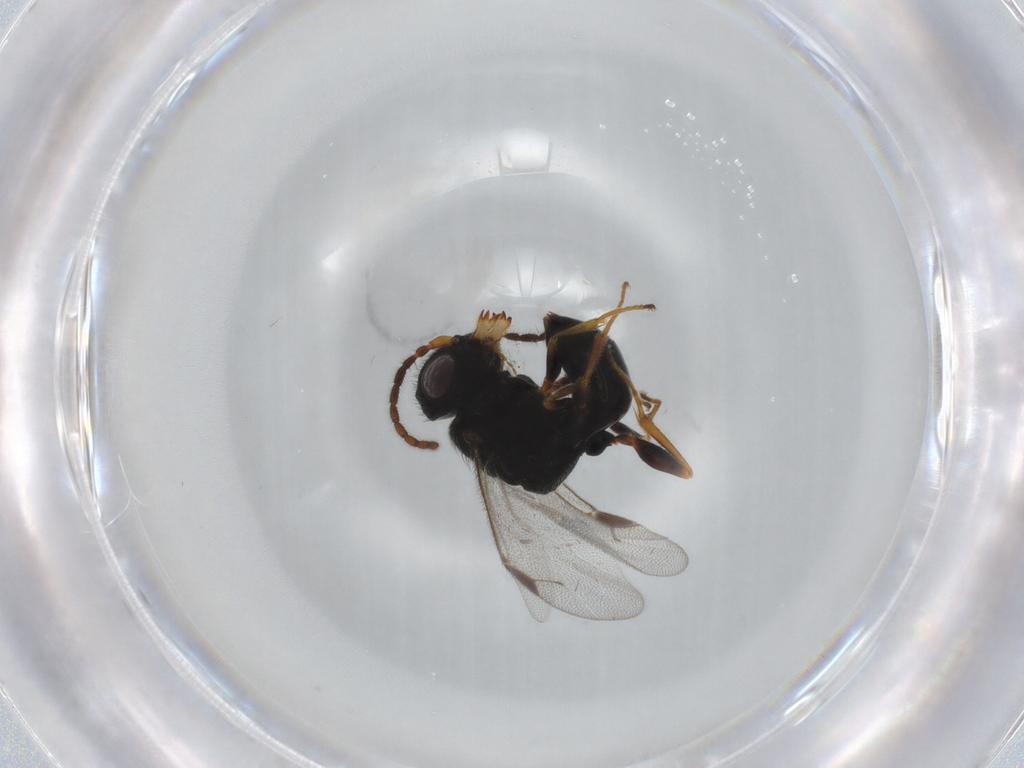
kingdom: Animalia
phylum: Arthropoda
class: Insecta
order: Hymenoptera
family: Dryinidae
